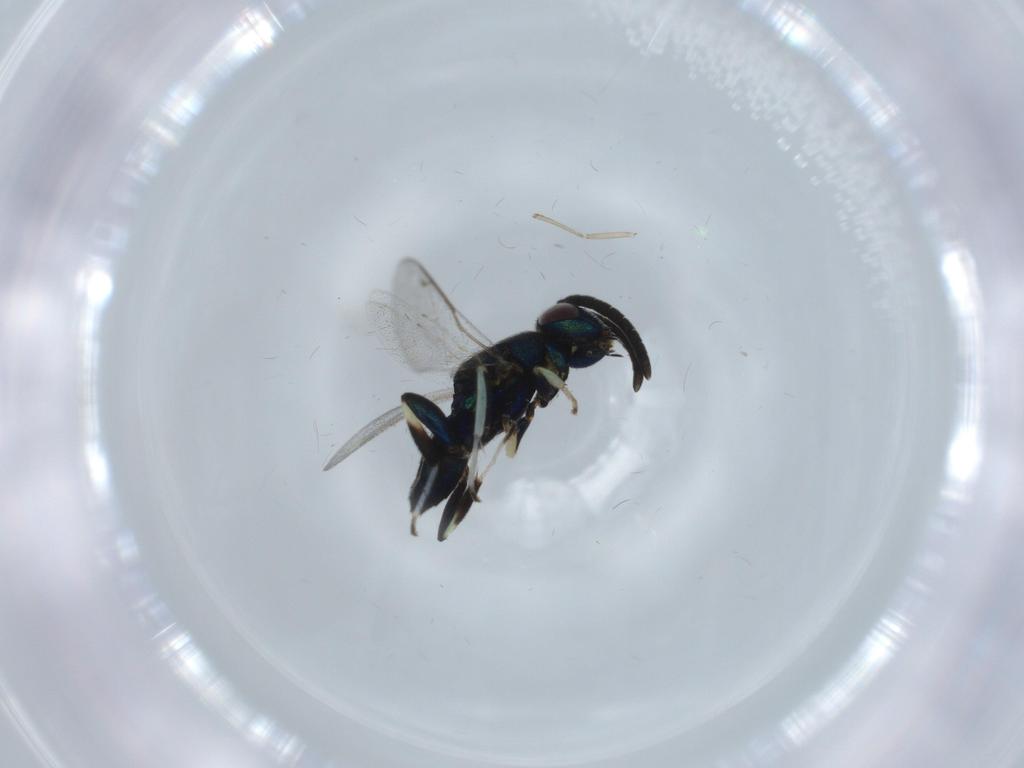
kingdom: Animalia
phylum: Arthropoda
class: Insecta
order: Hymenoptera
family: Eupelmidae
